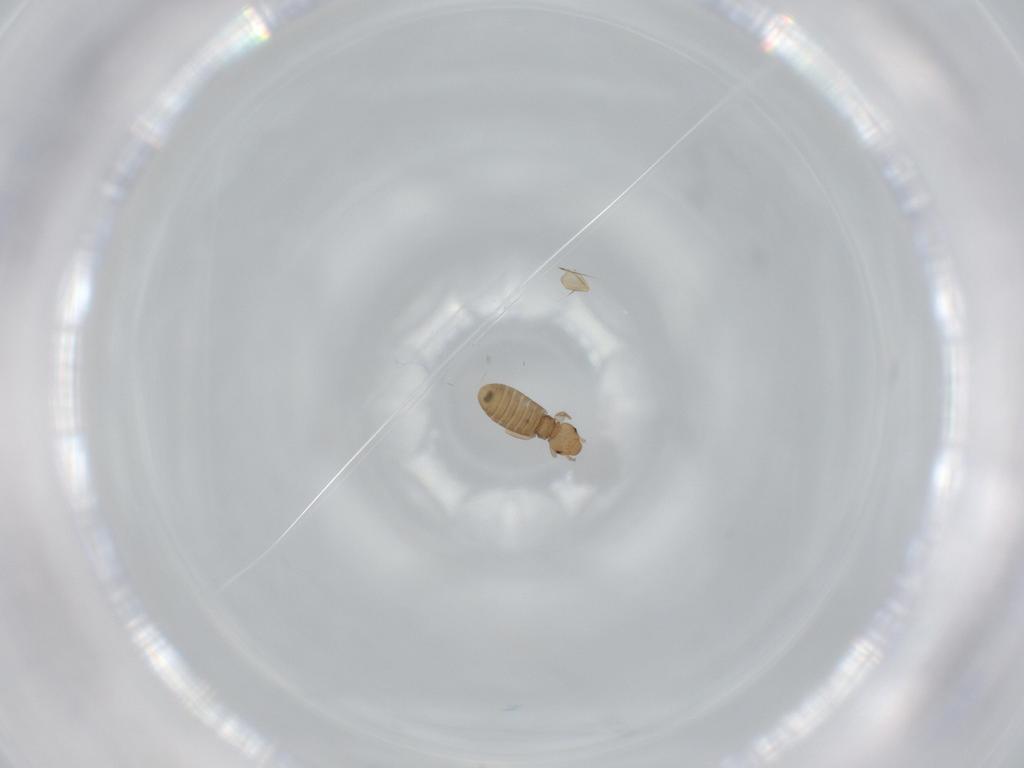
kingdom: Animalia
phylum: Arthropoda
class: Insecta
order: Psocodea
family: Liposcelididae
